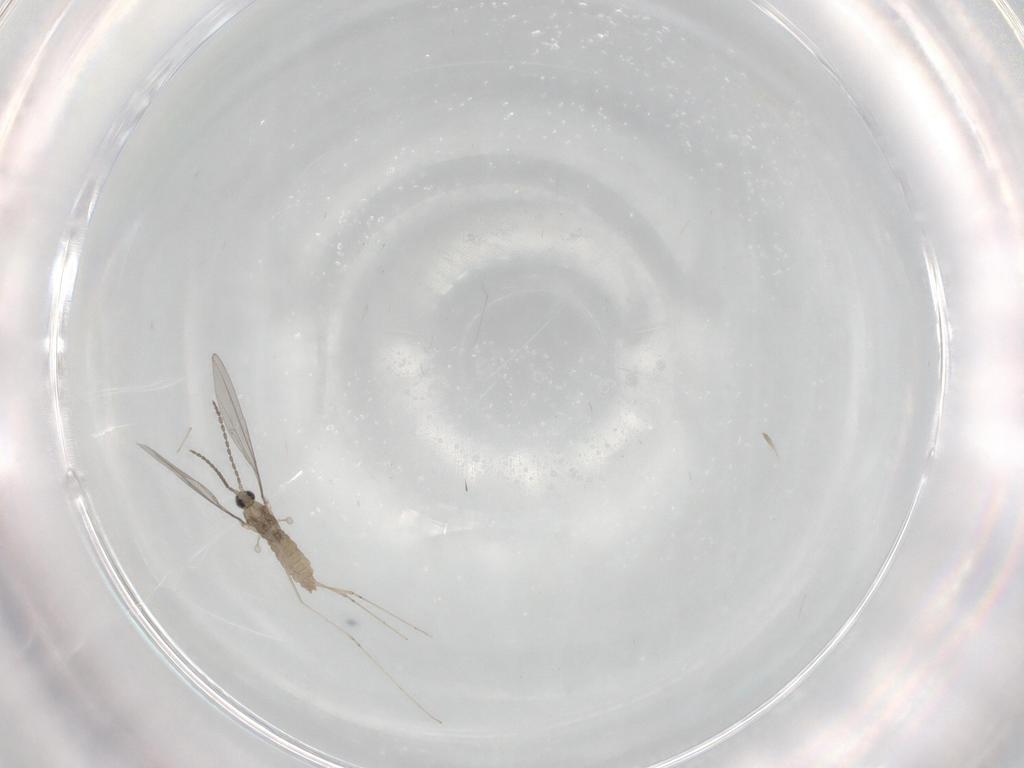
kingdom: Animalia
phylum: Arthropoda
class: Insecta
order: Diptera
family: Cecidomyiidae
